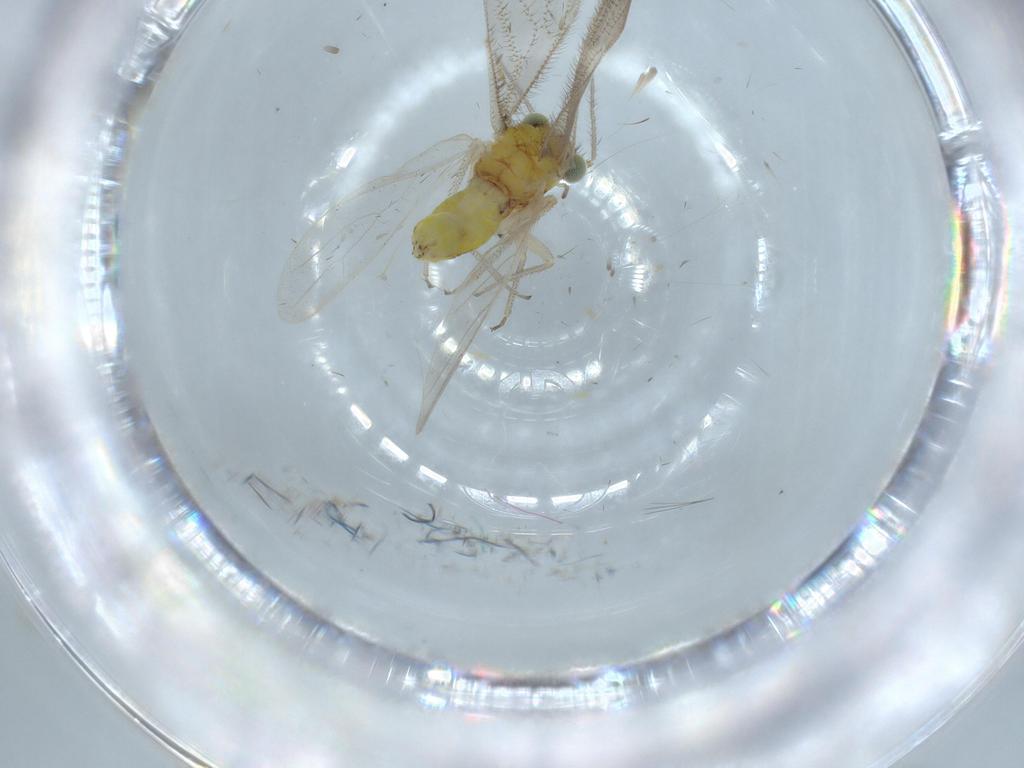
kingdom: Animalia
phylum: Arthropoda
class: Insecta
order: Psocodea
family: Pseudocaeciliidae
